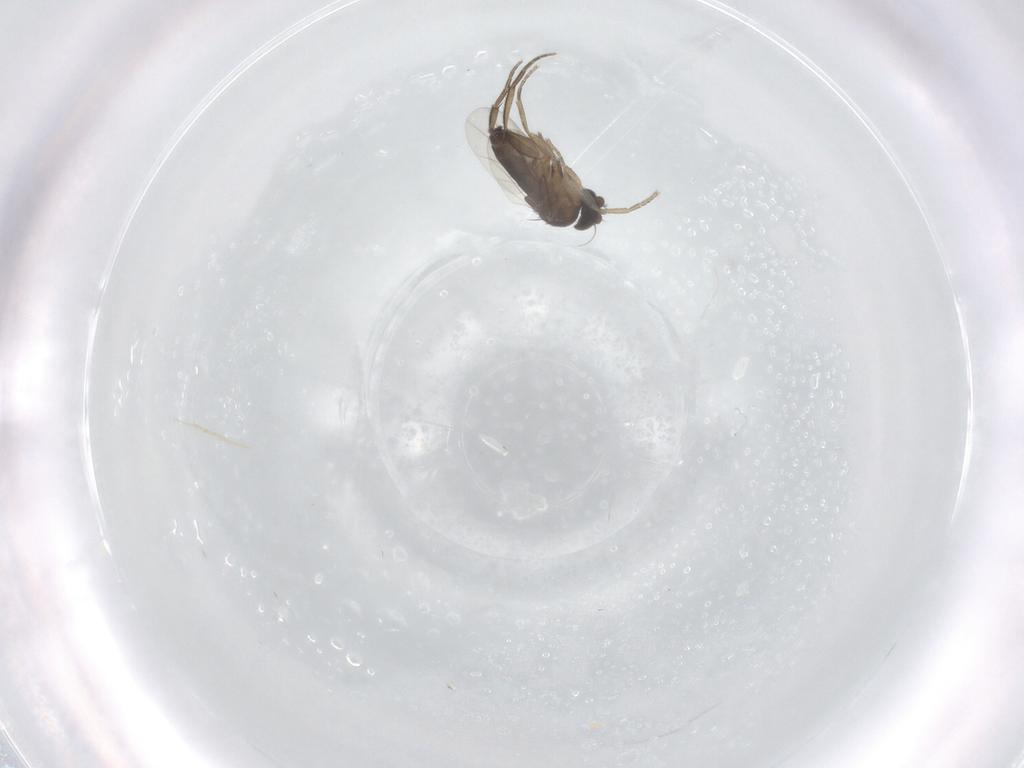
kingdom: Animalia
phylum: Arthropoda
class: Insecta
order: Diptera
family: Phoridae
